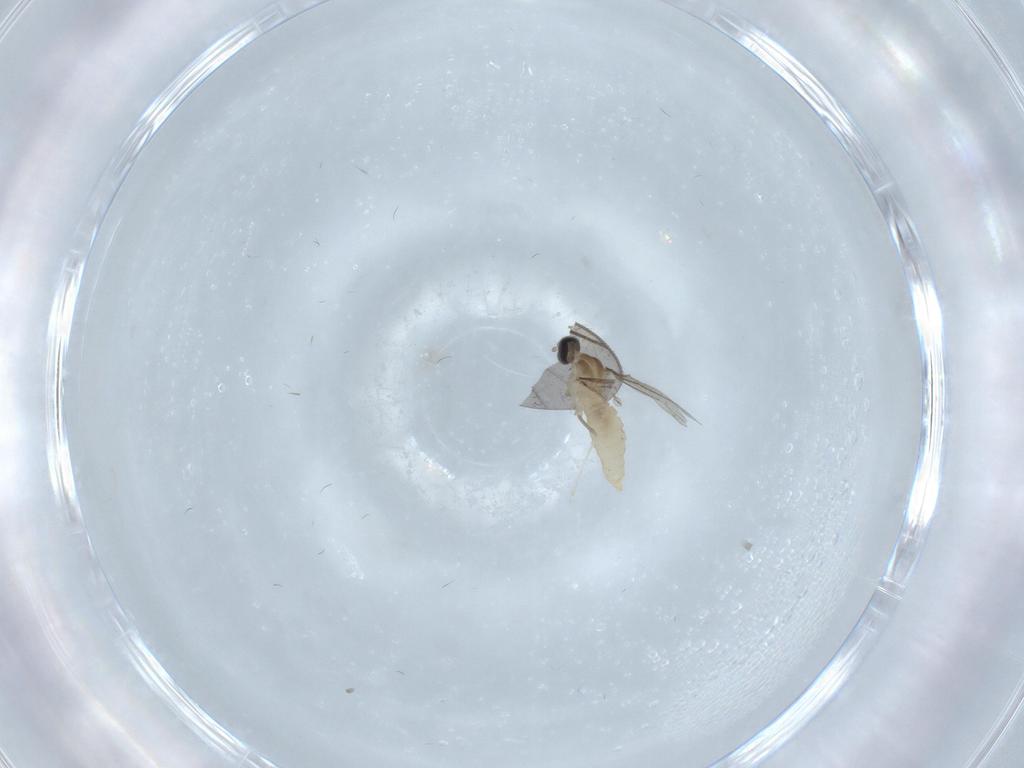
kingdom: Animalia
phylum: Arthropoda
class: Insecta
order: Diptera
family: Cecidomyiidae
